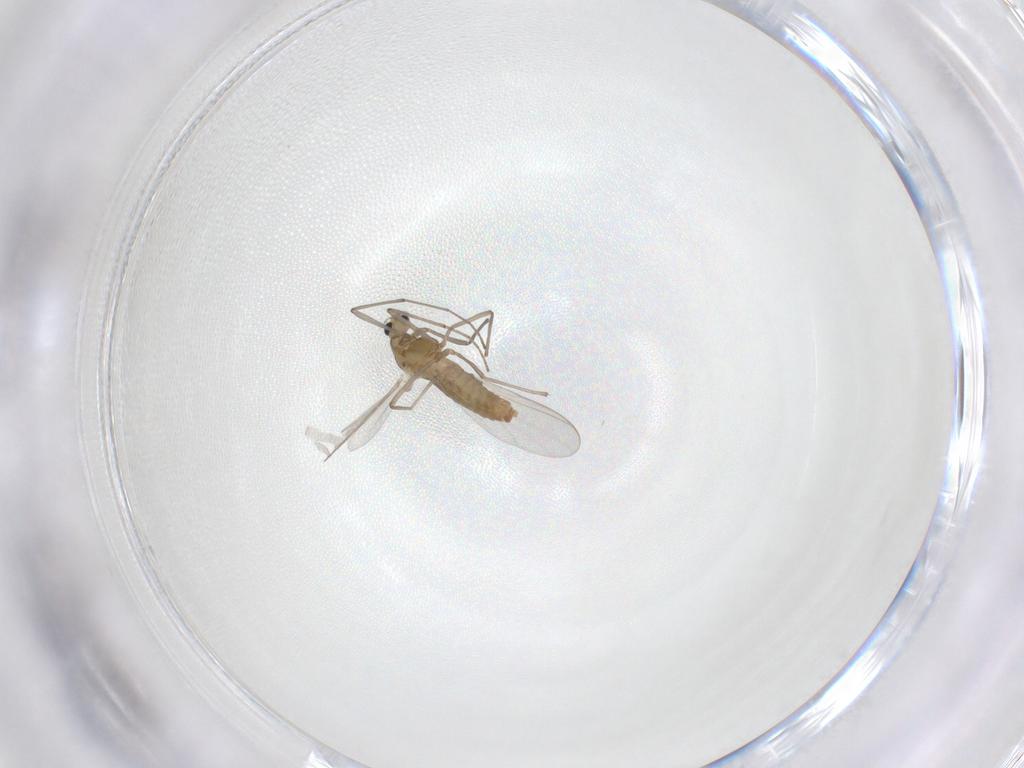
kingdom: Animalia
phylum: Arthropoda
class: Insecta
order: Diptera
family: Chironomidae
